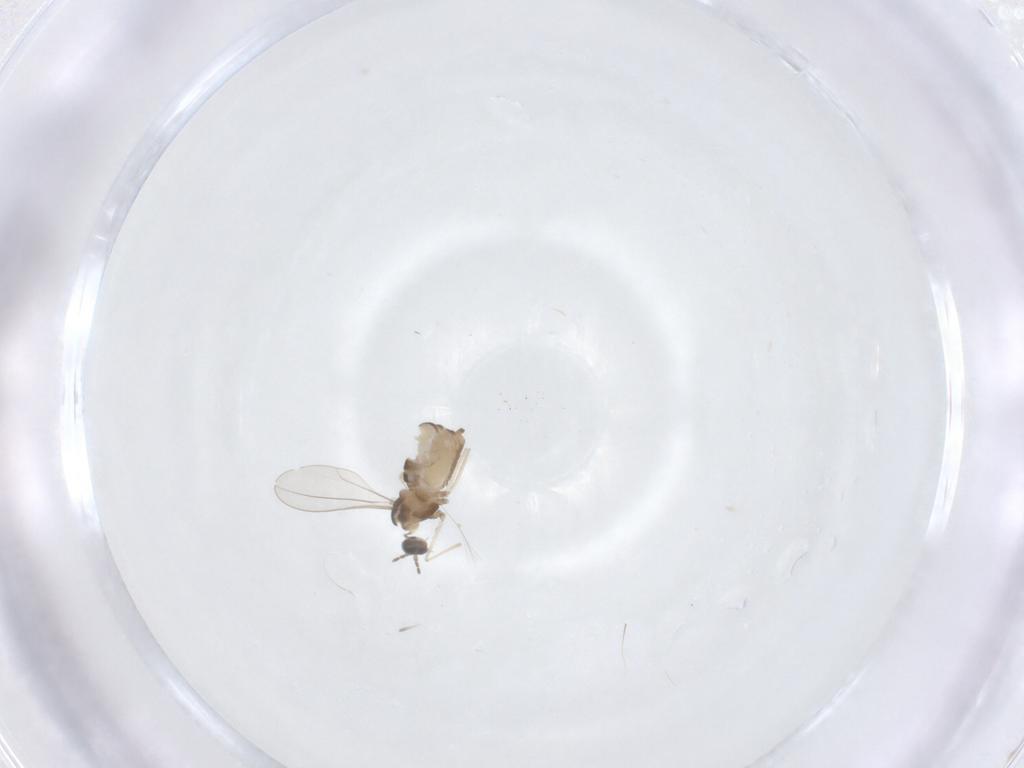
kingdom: Animalia
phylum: Arthropoda
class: Insecta
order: Diptera
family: Cecidomyiidae
